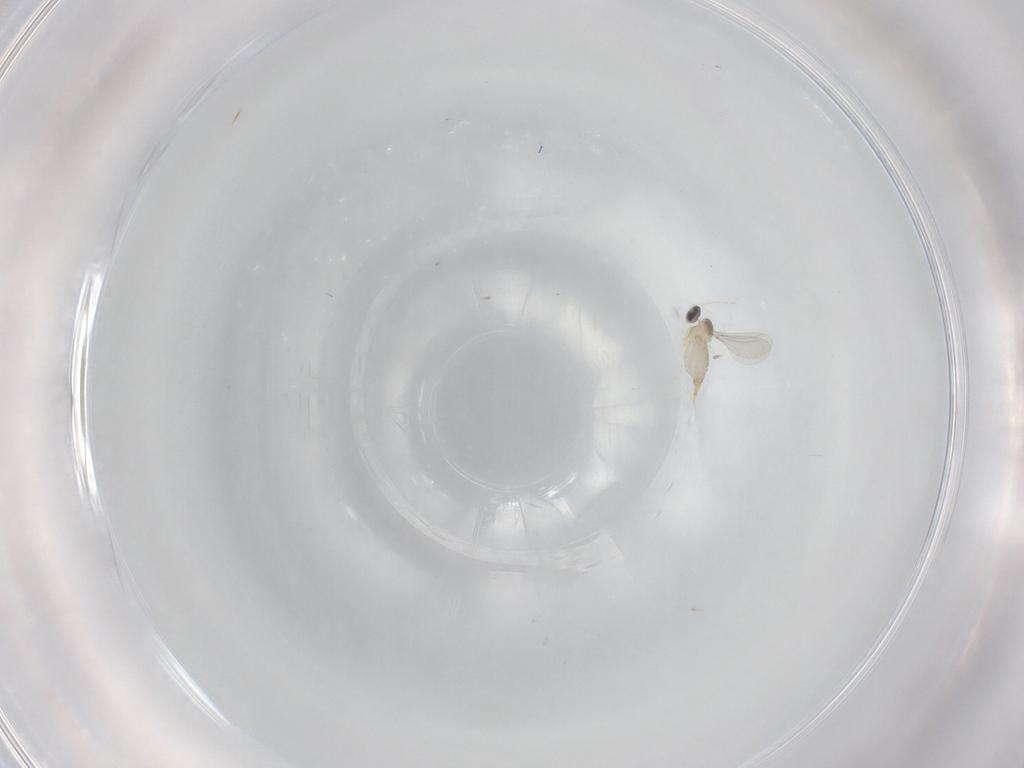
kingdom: Animalia
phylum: Arthropoda
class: Insecta
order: Diptera
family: Cecidomyiidae
